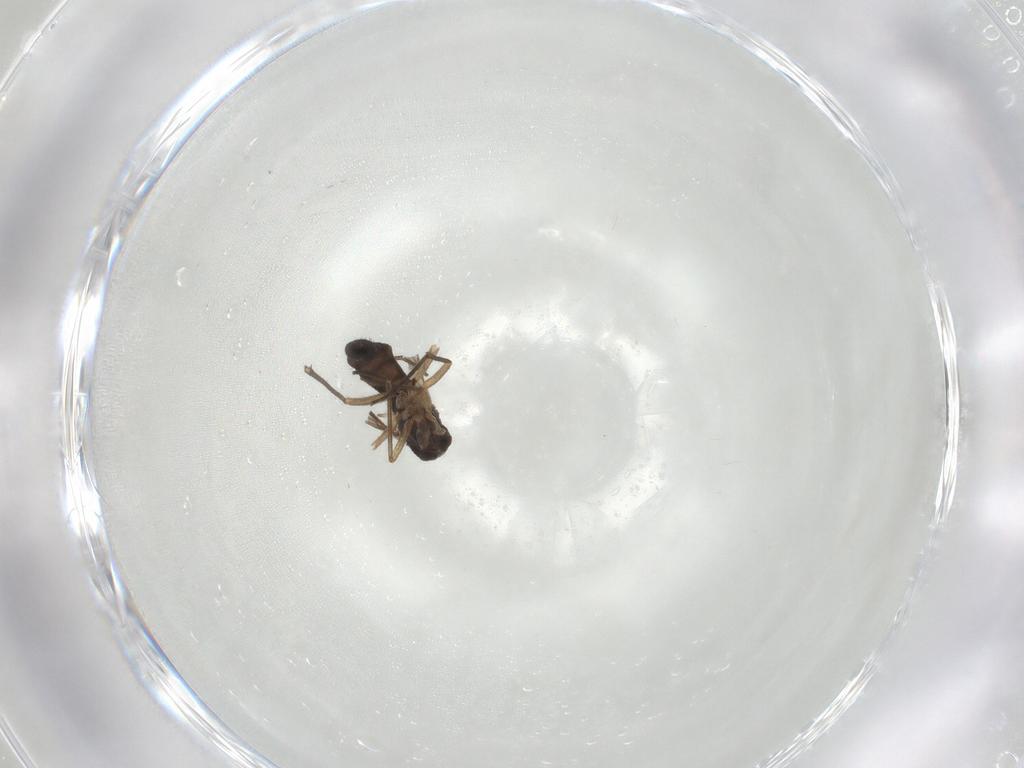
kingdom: Animalia
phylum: Arthropoda
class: Insecta
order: Diptera
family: Sciaridae
